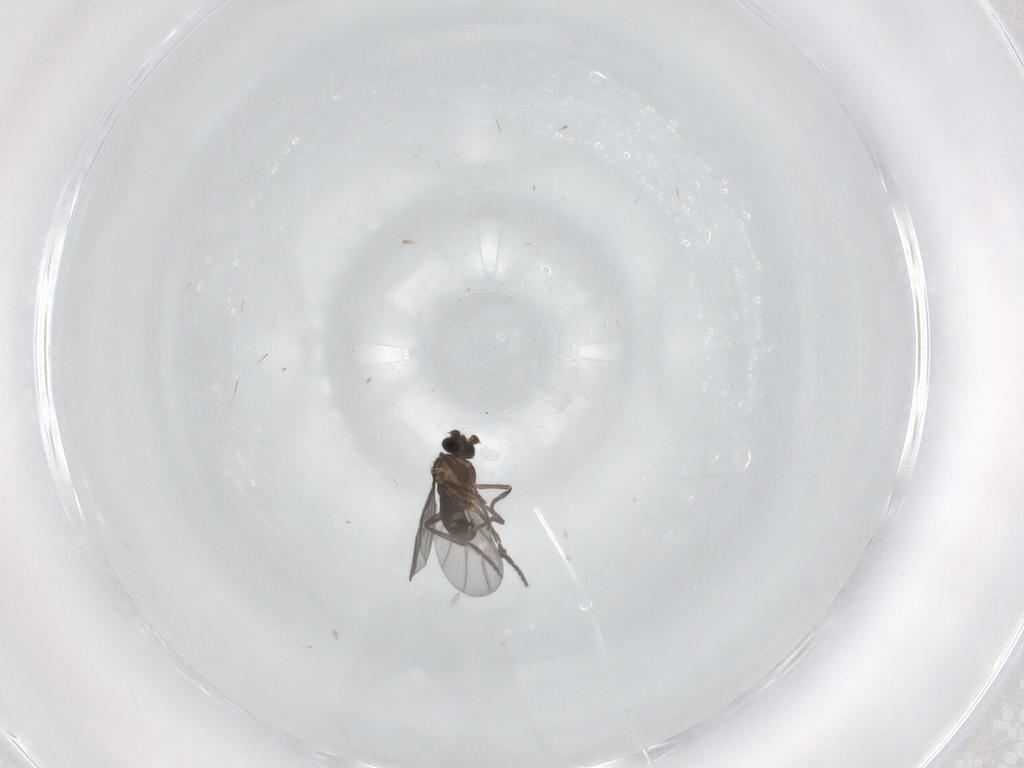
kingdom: Animalia
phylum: Arthropoda
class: Insecta
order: Diptera
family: Phoridae
